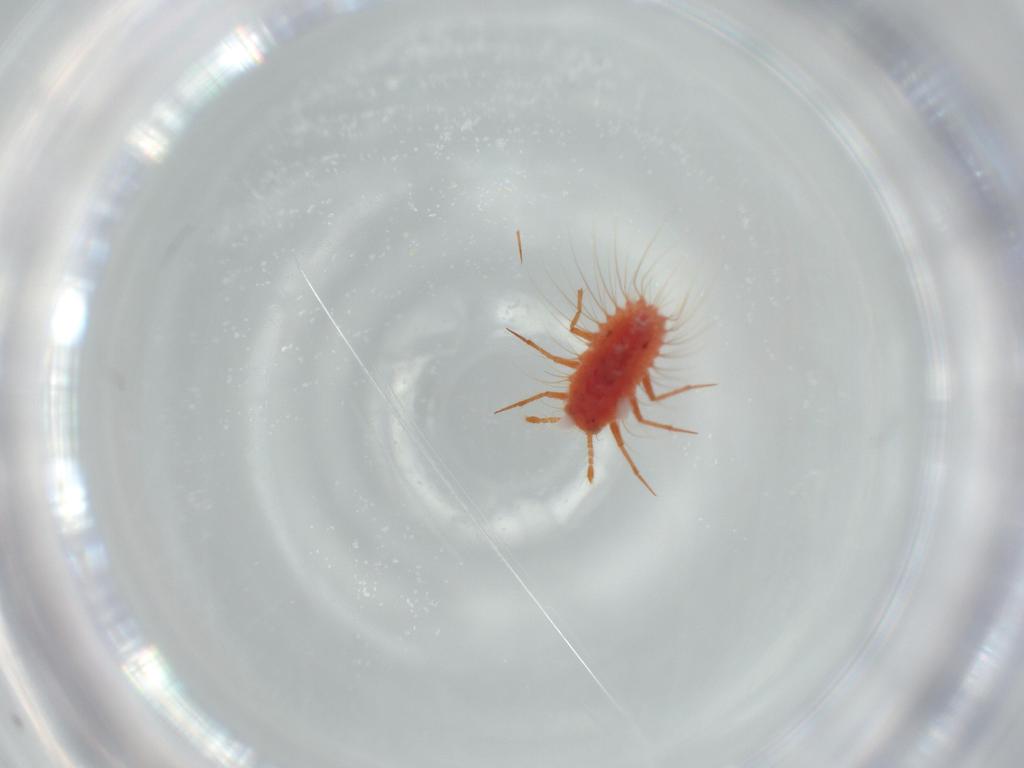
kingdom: Animalia
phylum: Arthropoda
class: Insecta
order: Hemiptera
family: Monophlebidae
